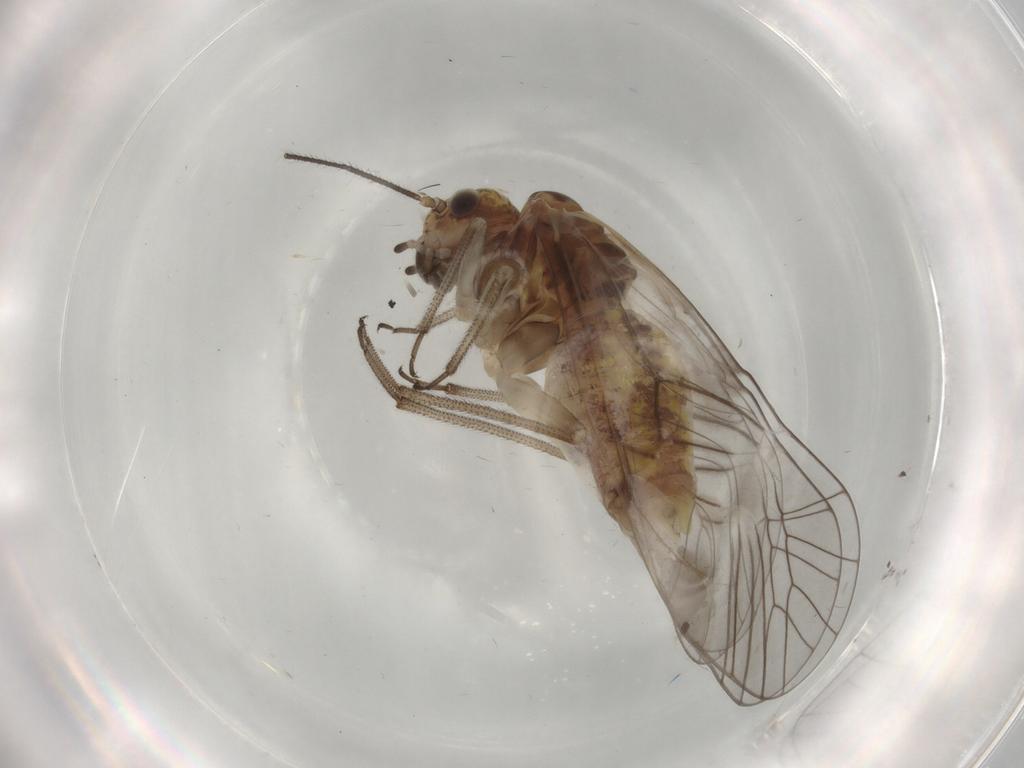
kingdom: Animalia
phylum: Arthropoda
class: Insecta
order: Psocodea
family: Archipsocidae
